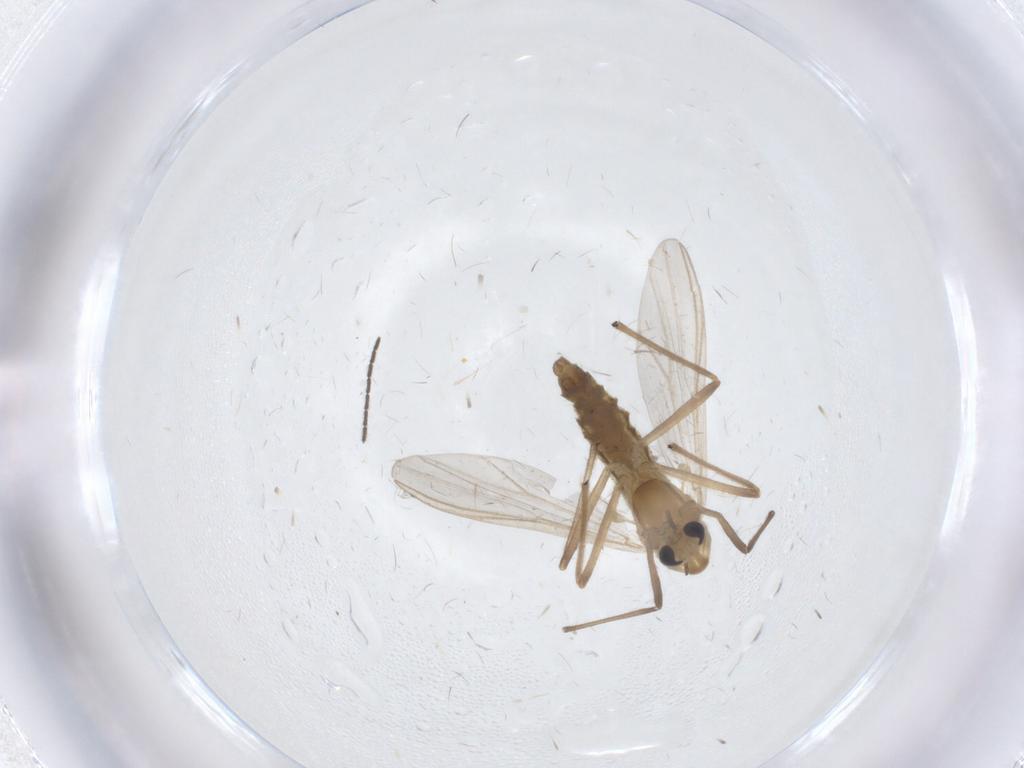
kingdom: Animalia
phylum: Arthropoda
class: Insecta
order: Diptera
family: Chironomidae
